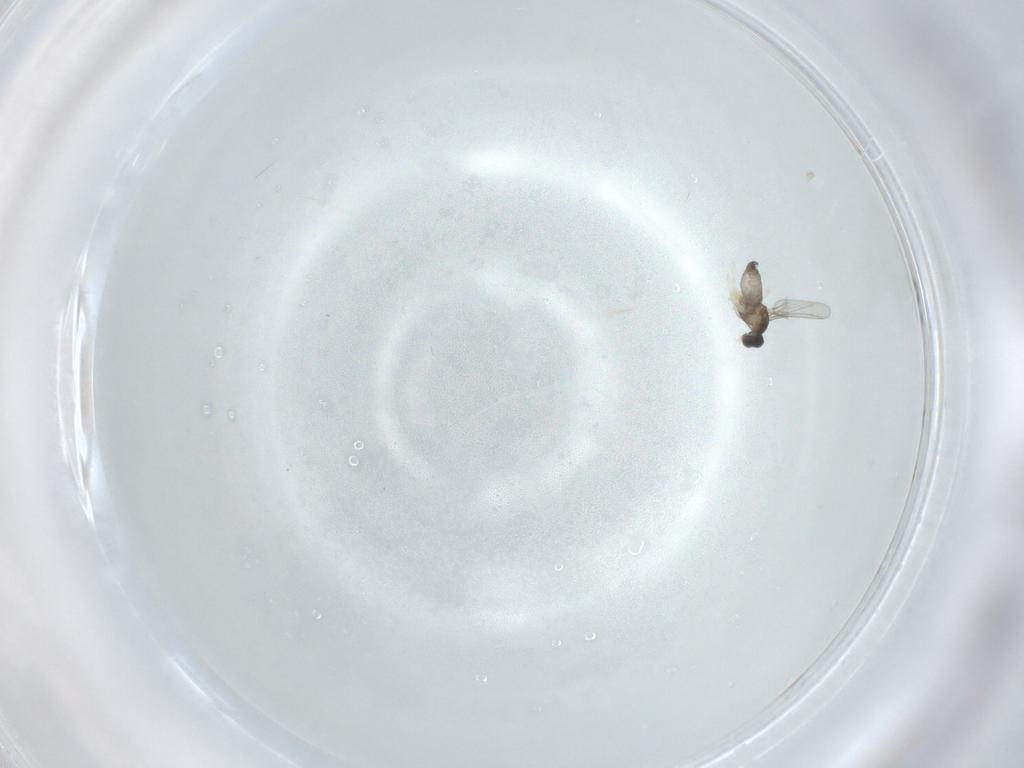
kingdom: Animalia
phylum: Arthropoda
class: Insecta
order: Diptera
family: Cecidomyiidae
